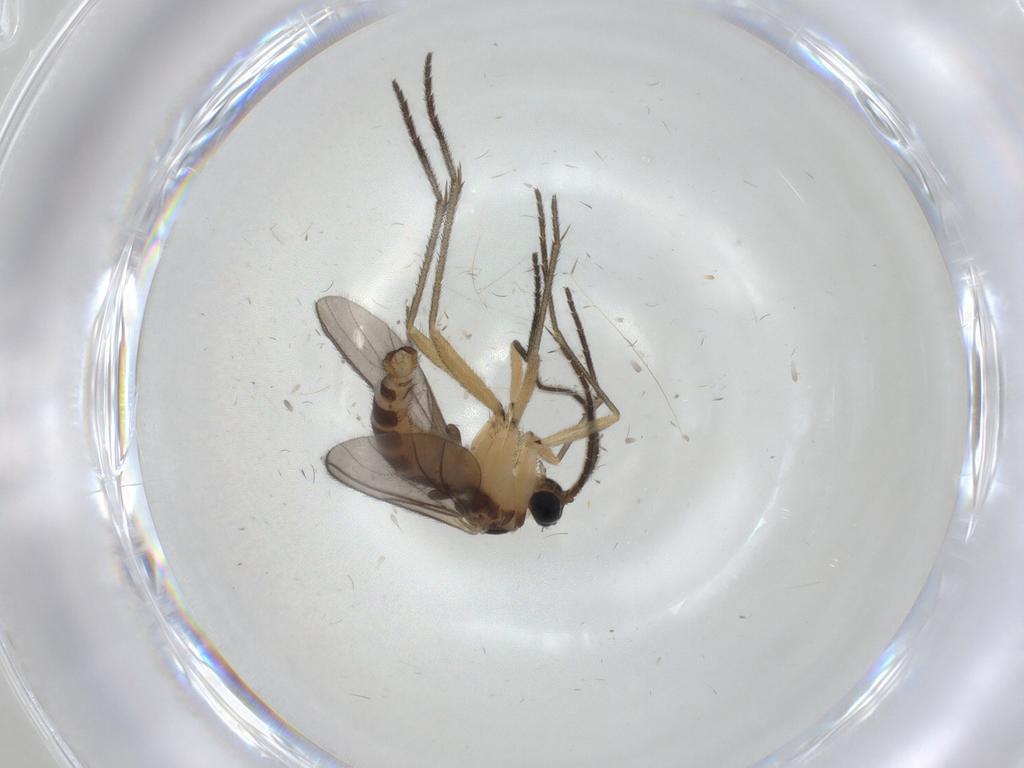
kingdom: Animalia
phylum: Arthropoda
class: Insecta
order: Diptera
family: Sciaridae
